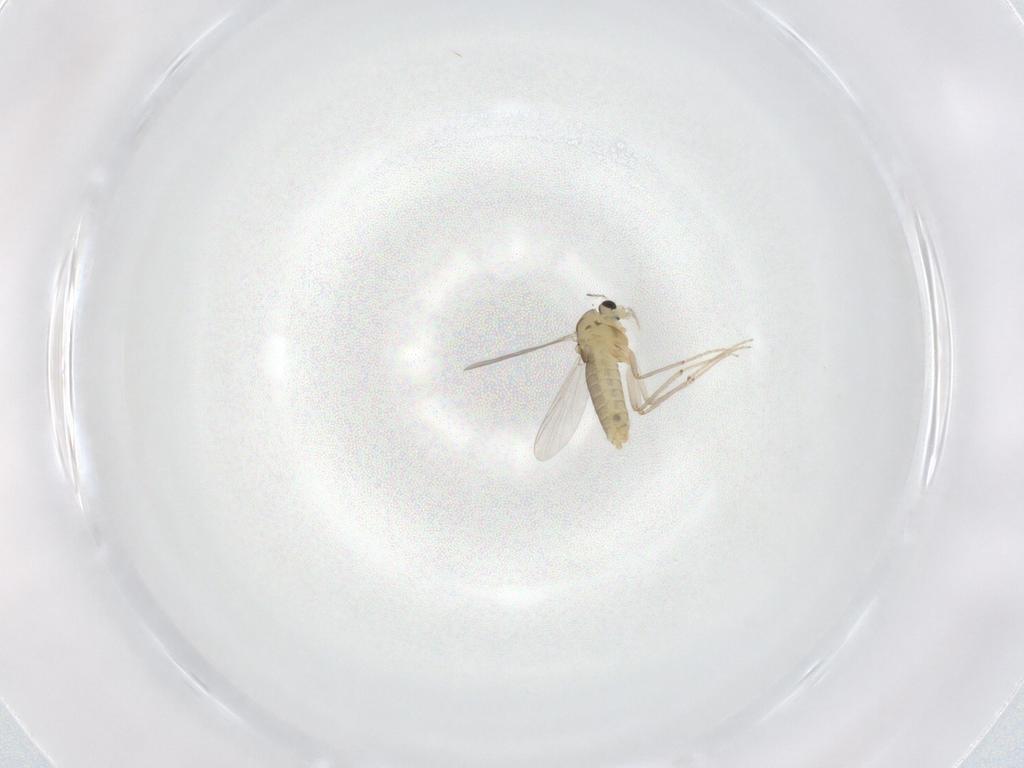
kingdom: Animalia
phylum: Arthropoda
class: Insecta
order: Diptera
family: Chironomidae
